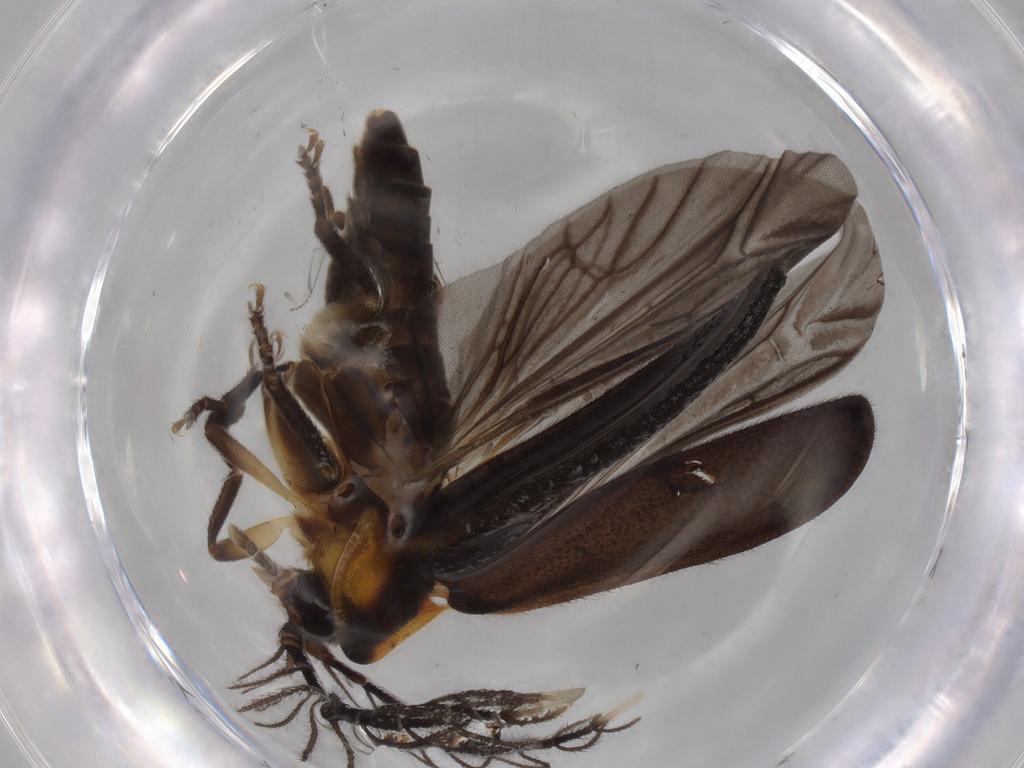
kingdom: Animalia
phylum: Arthropoda
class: Insecta
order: Coleoptera
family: Lampyridae
